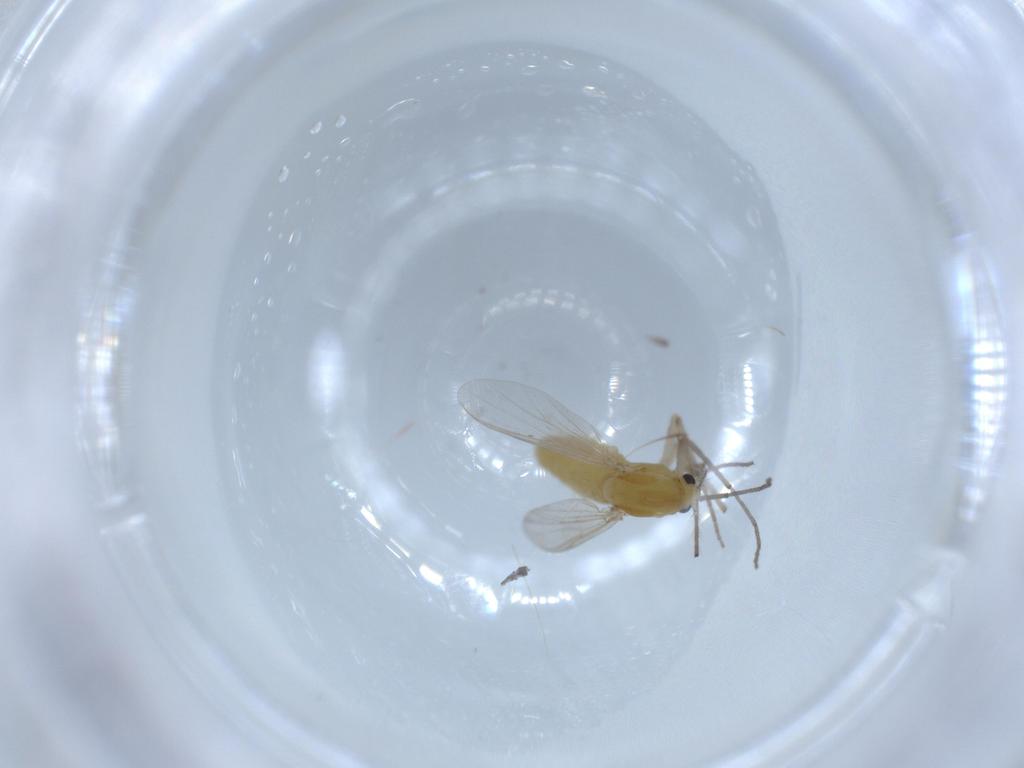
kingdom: Animalia
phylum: Arthropoda
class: Insecta
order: Diptera
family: Chironomidae
